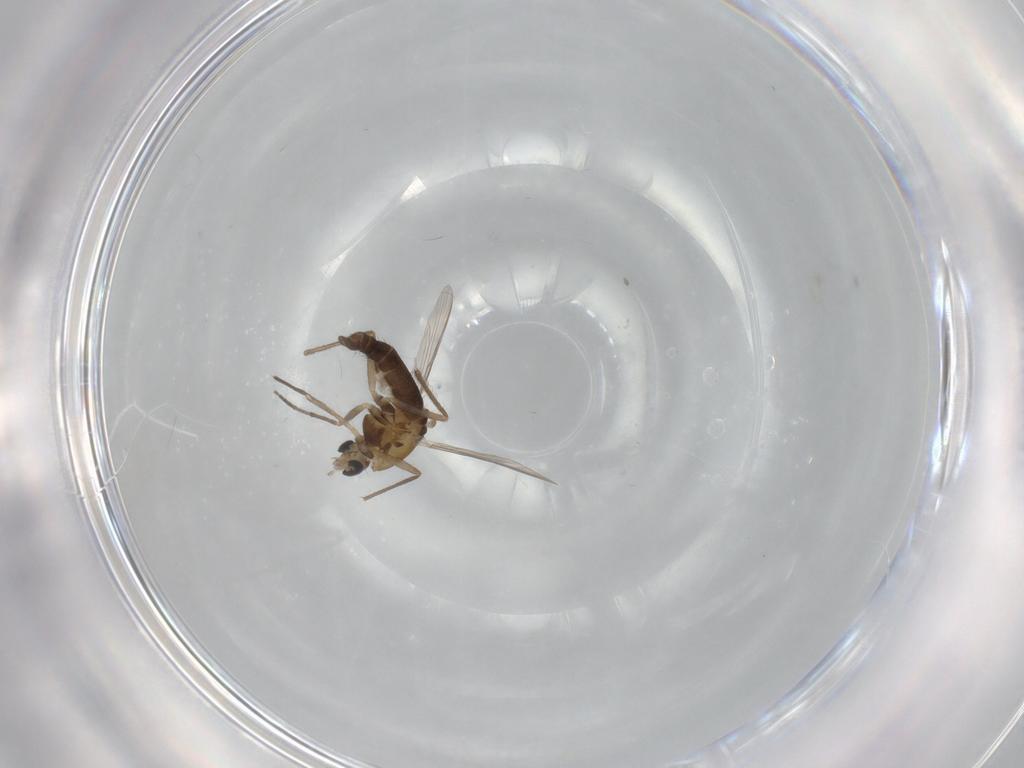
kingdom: Animalia
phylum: Arthropoda
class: Insecta
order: Diptera
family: Chironomidae
